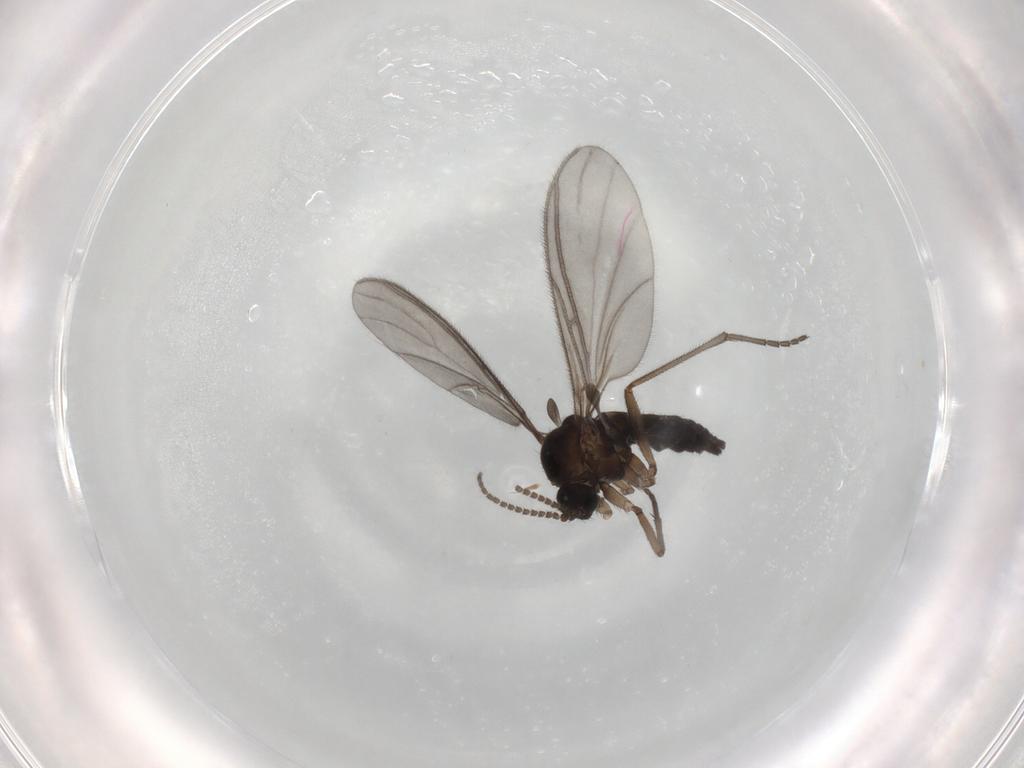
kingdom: Animalia
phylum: Arthropoda
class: Insecta
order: Diptera
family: Sciaridae
